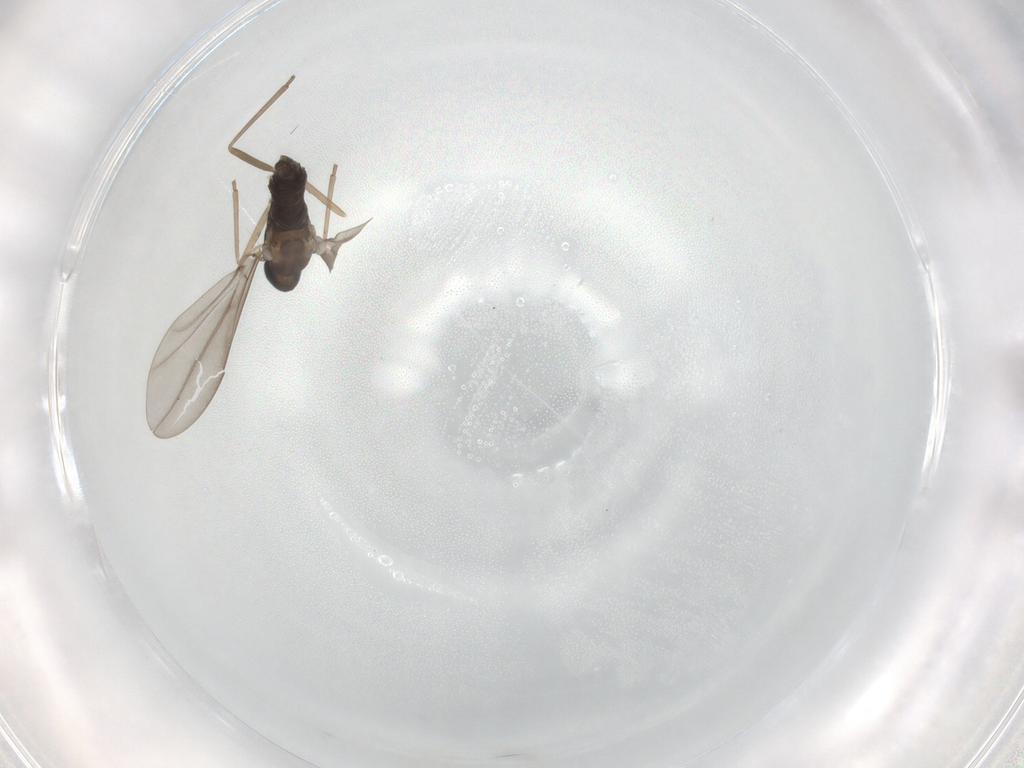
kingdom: Animalia
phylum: Arthropoda
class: Insecta
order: Diptera
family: Cecidomyiidae
